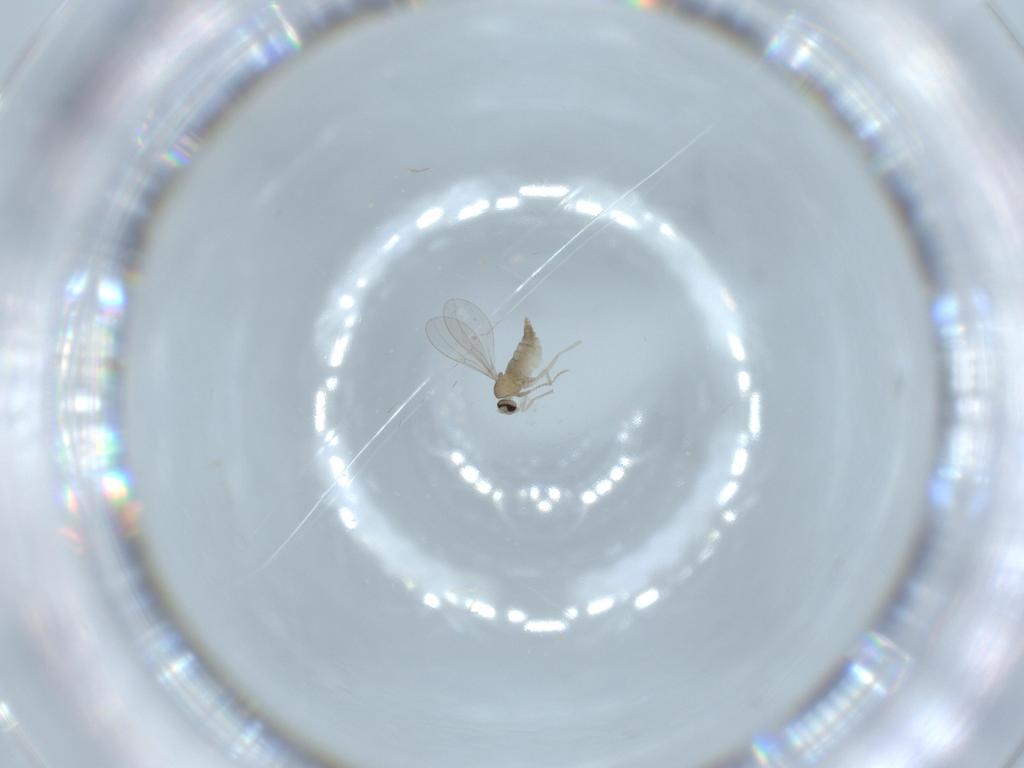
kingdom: Animalia
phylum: Arthropoda
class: Insecta
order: Diptera
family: Cecidomyiidae
